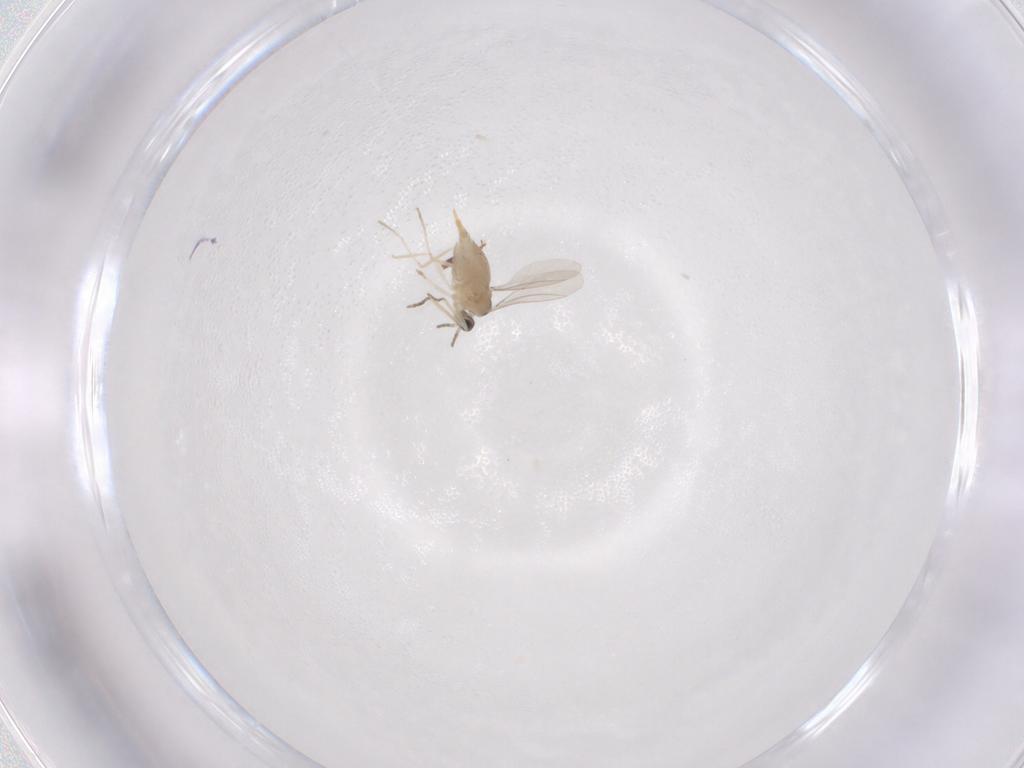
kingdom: Animalia
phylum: Arthropoda
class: Insecta
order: Diptera
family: Cecidomyiidae
